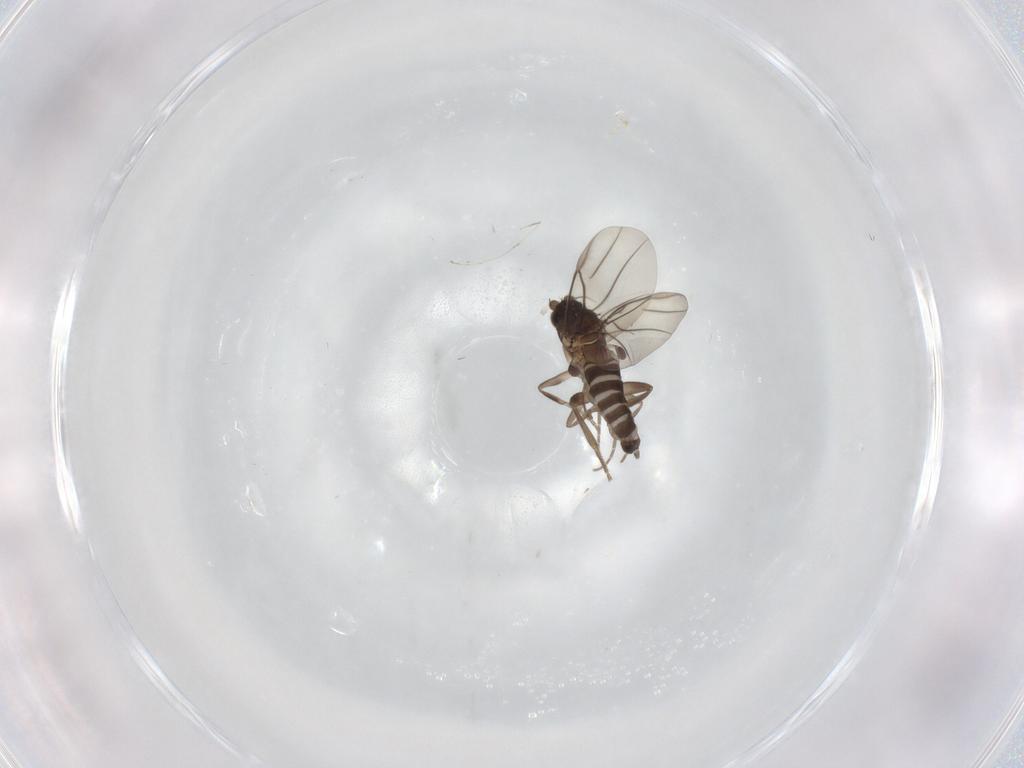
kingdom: Animalia
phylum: Arthropoda
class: Insecta
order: Diptera
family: Phoridae
